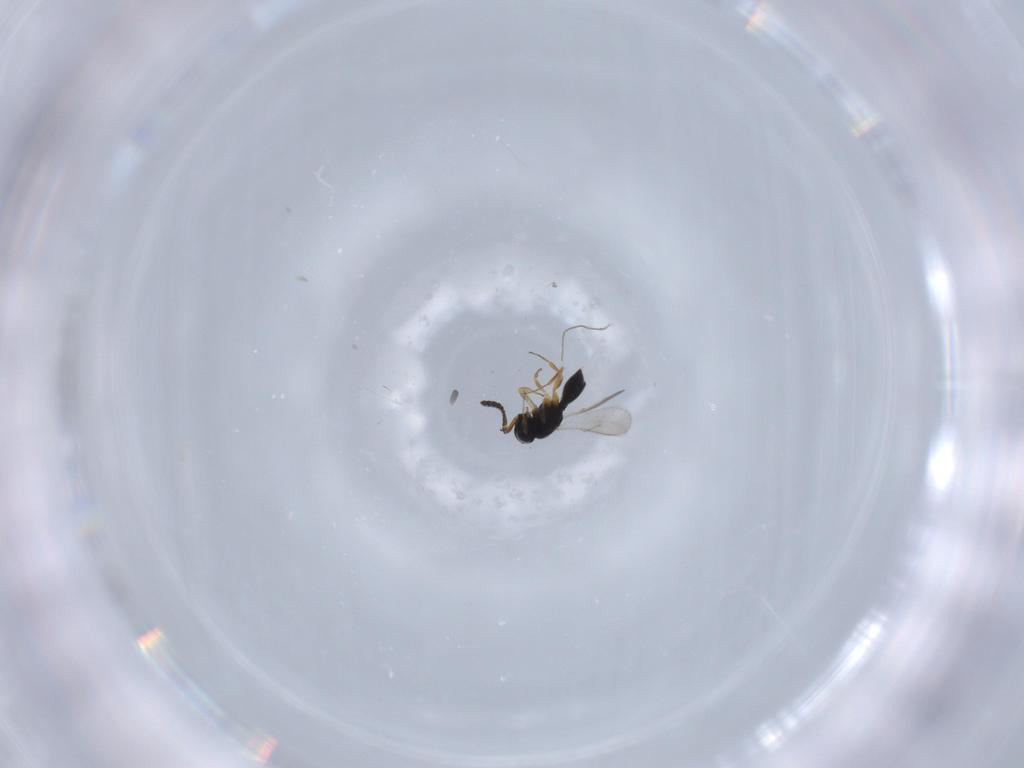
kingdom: Animalia
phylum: Arthropoda
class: Insecta
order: Hymenoptera
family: Scelionidae
